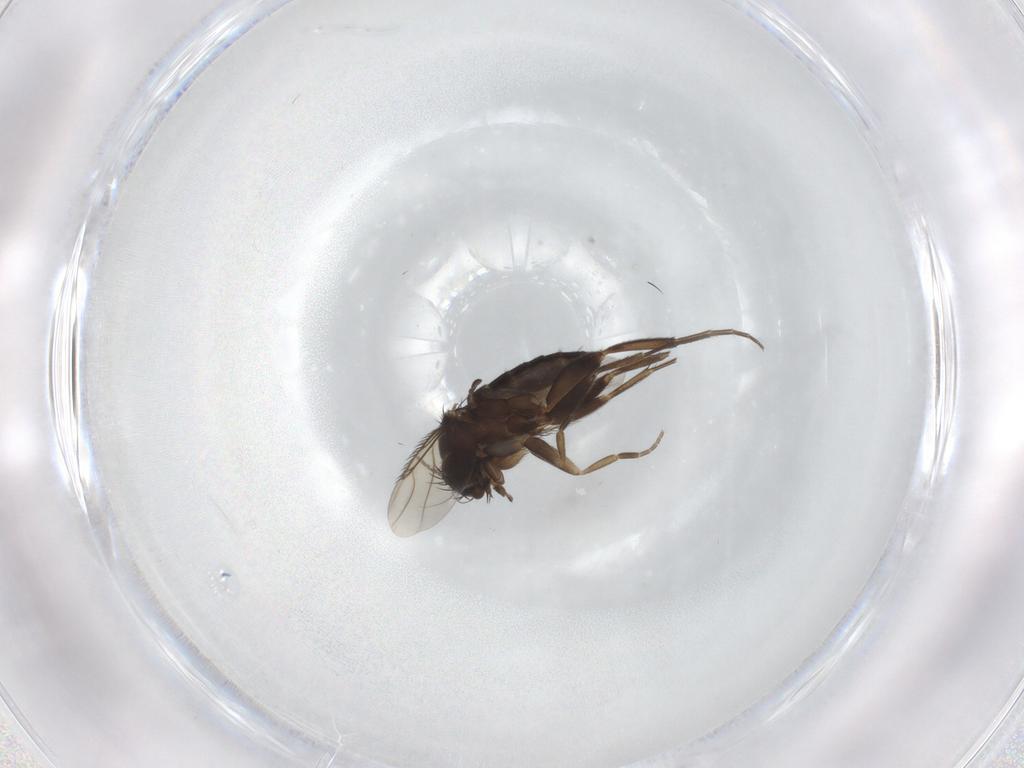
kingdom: Animalia
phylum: Arthropoda
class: Insecta
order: Diptera
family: Phoridae
